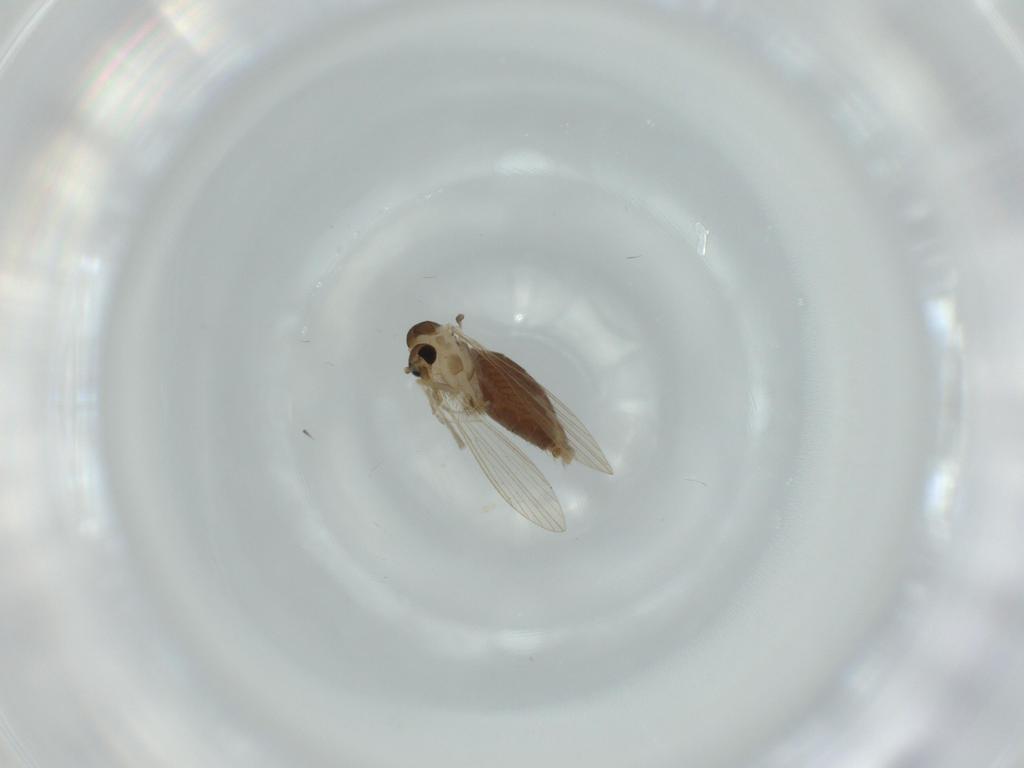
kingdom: Animalia
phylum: Arthropoda
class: Insecta
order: Diptera
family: Psychodidae
